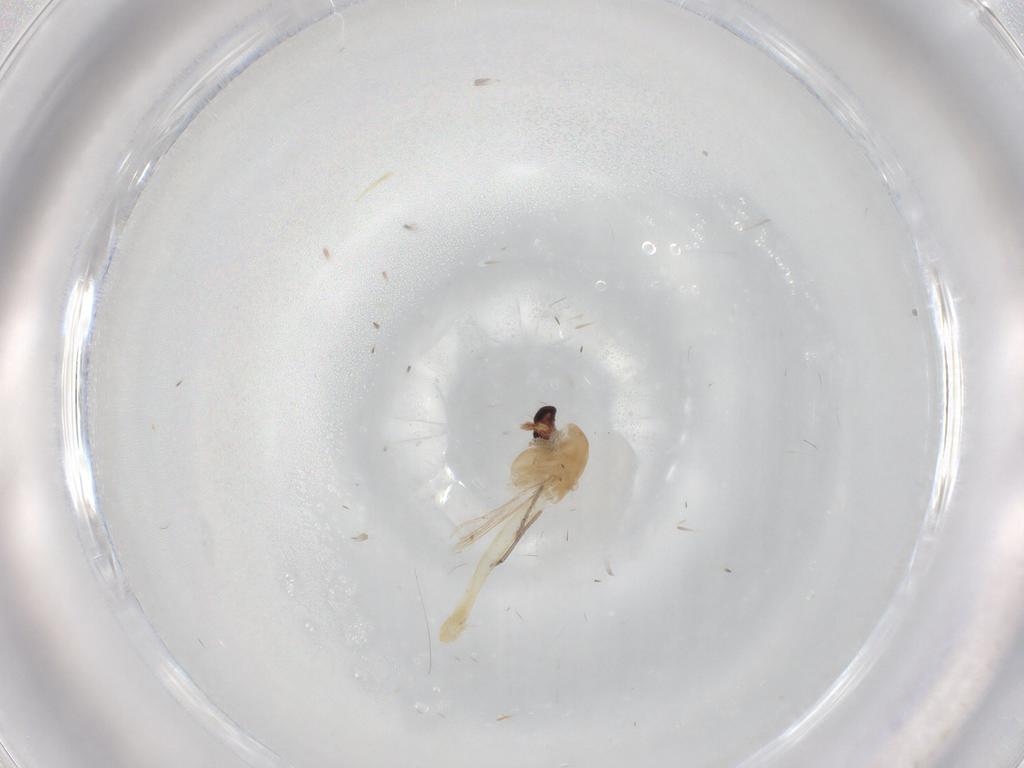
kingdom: Animalia
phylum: Arthropoda
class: Insecta
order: Diptera
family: Chironomidae
